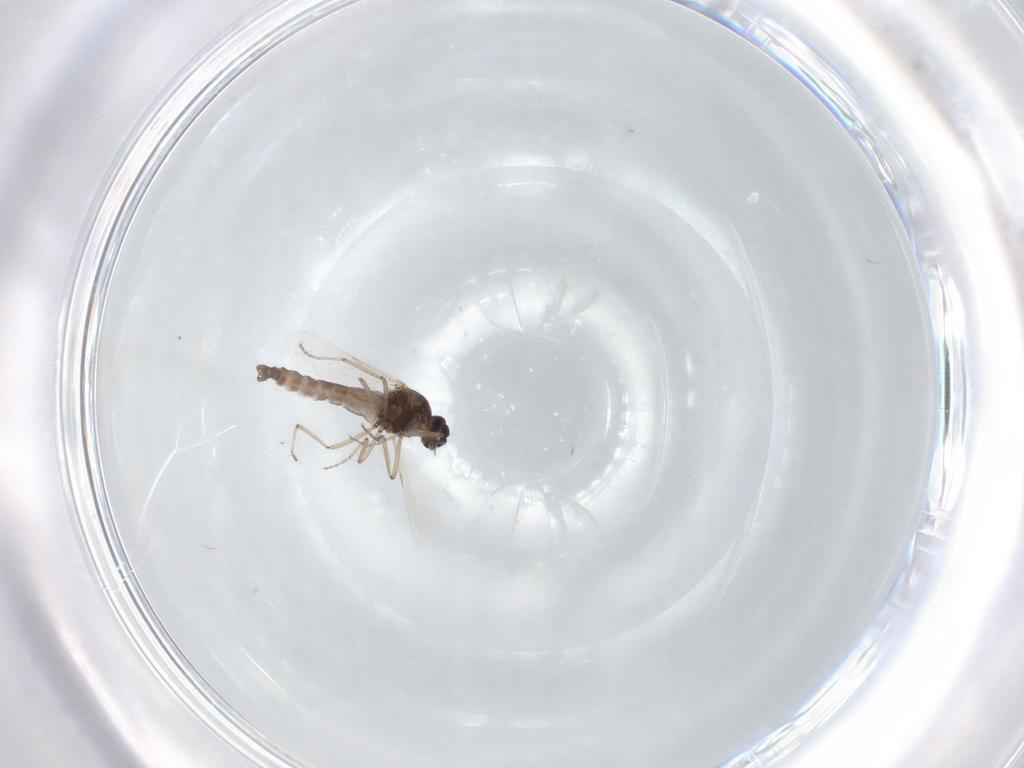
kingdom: Animalia
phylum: Arthropoda
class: Insecta
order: Diptera
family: Ceratopogonidae
